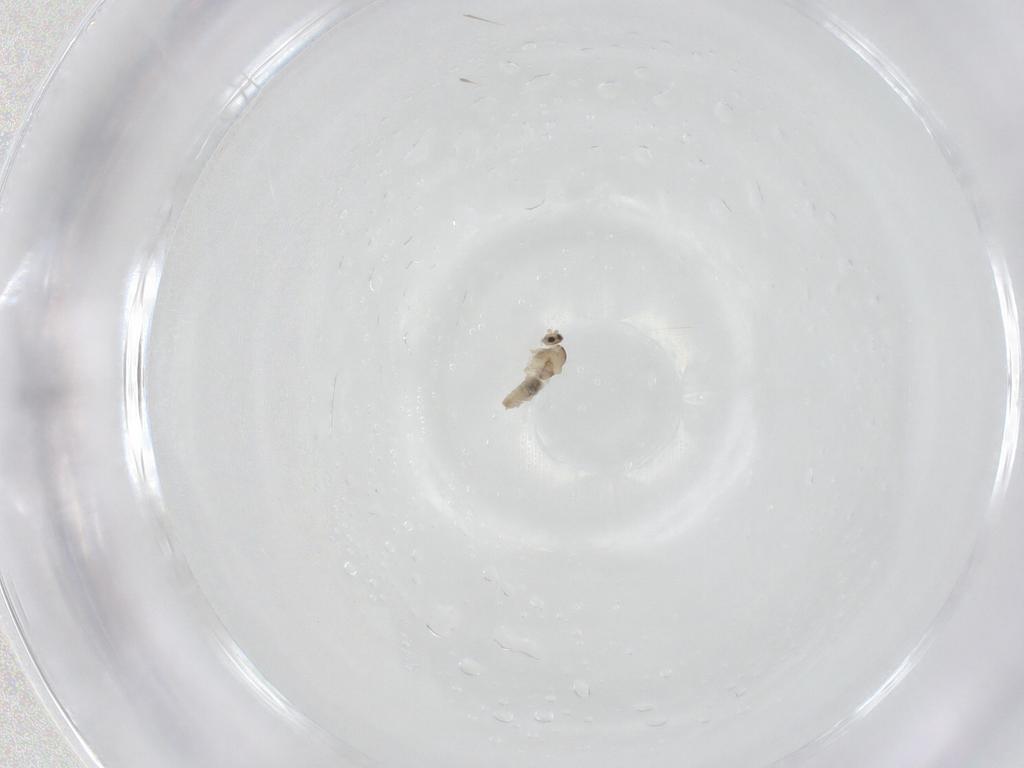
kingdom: Animalia
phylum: Arthropoda
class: Insecta
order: Diptera
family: Cecidomyiidae
